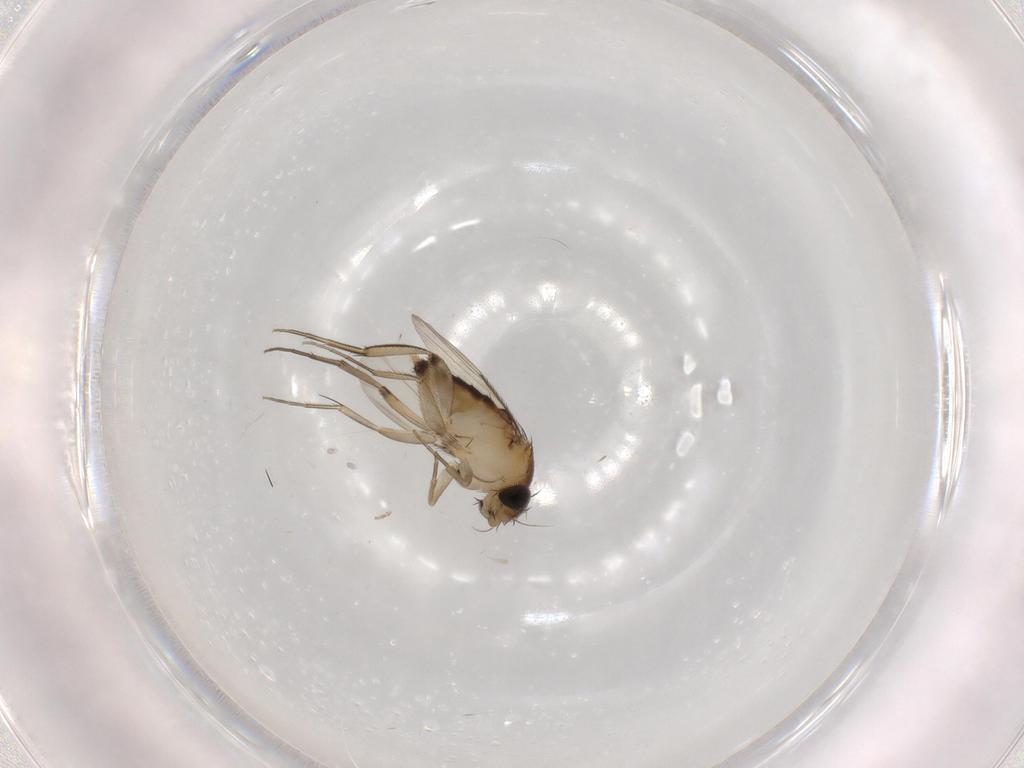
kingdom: Animalia
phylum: Arthropoda
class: Insecta
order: Diptera
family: Phoridae
